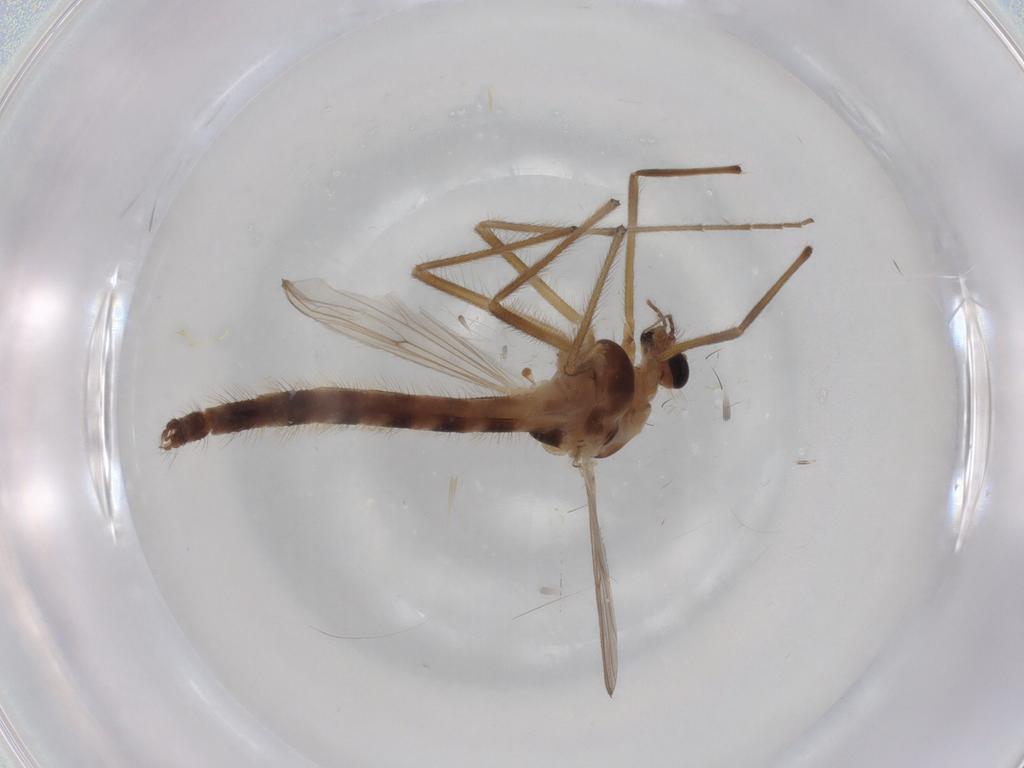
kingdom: Animalia
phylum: Arthropoda
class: Insecta
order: Diptera
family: Chironomidae
